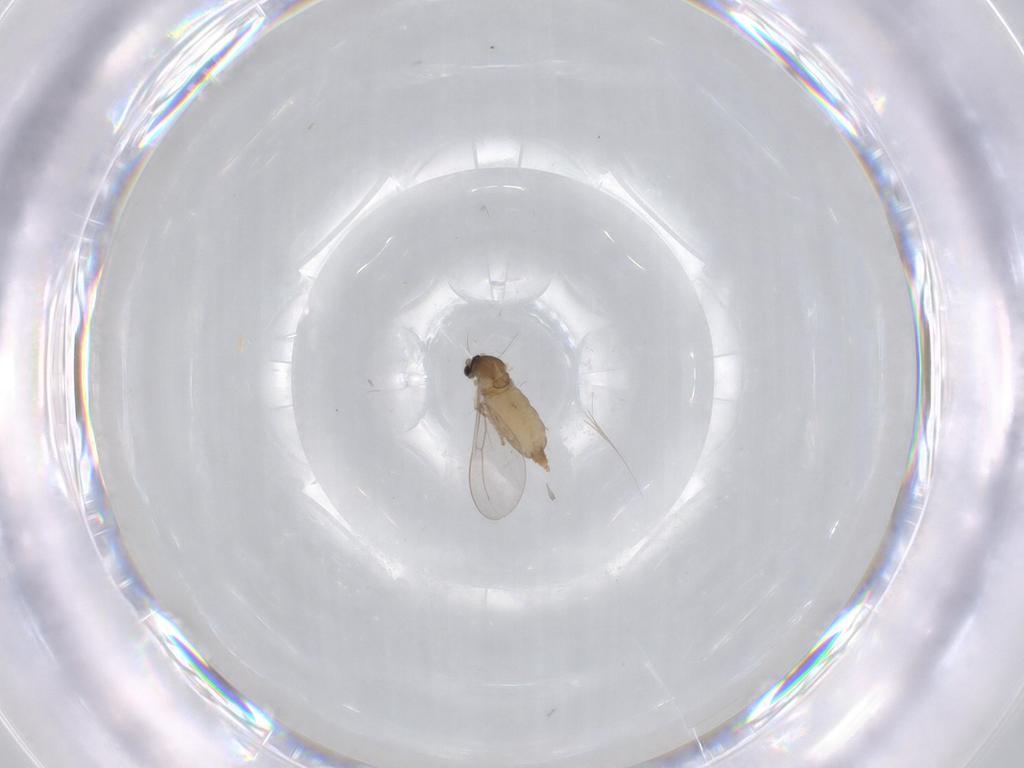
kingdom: Animalia
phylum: Arthropoda
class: Insecta
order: Diptera
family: Cecidomyiidae
